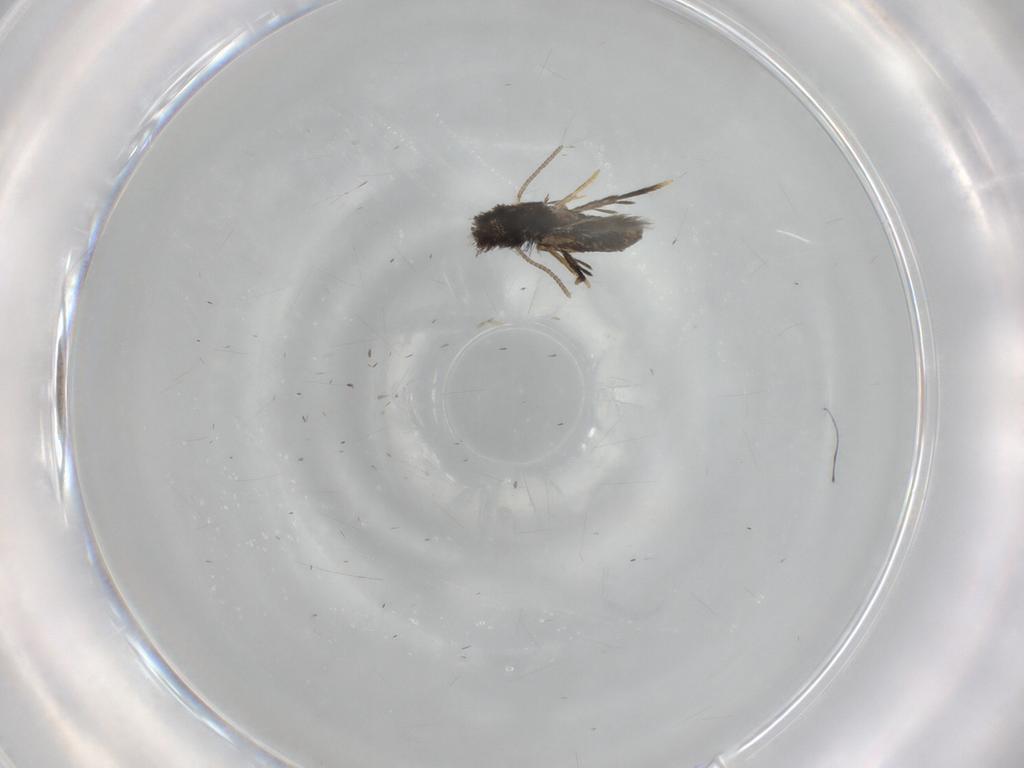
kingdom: Animalia
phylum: Arthropoda
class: Insecta
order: Lepidoptera
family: Nepticulidae
